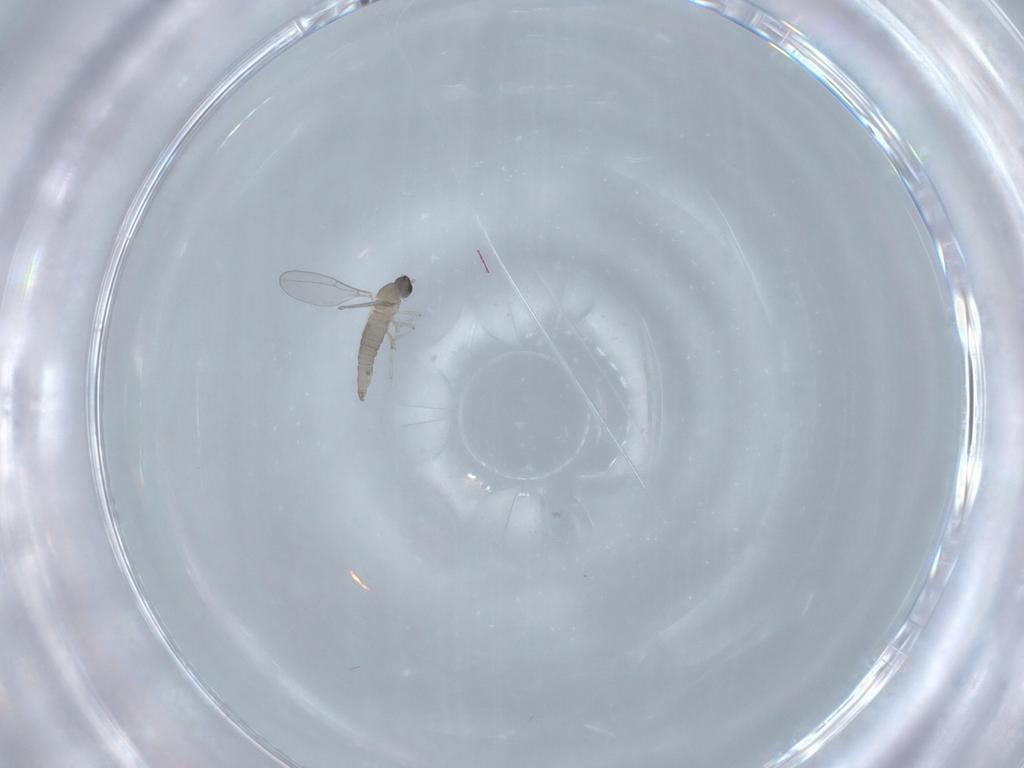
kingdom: Animalia
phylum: Arthropoda
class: Insecta
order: Diptera
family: Cecidomyiidae
